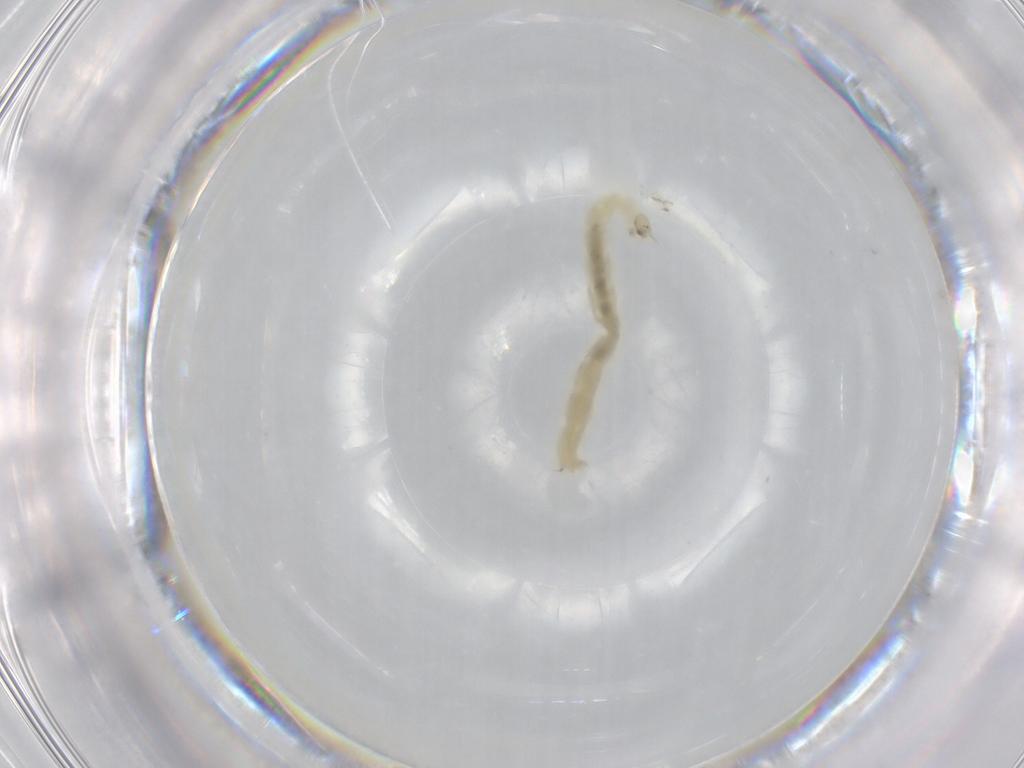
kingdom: Animalia
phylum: Arthropoda
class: Insecta
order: Diptera
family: Chironomidae
